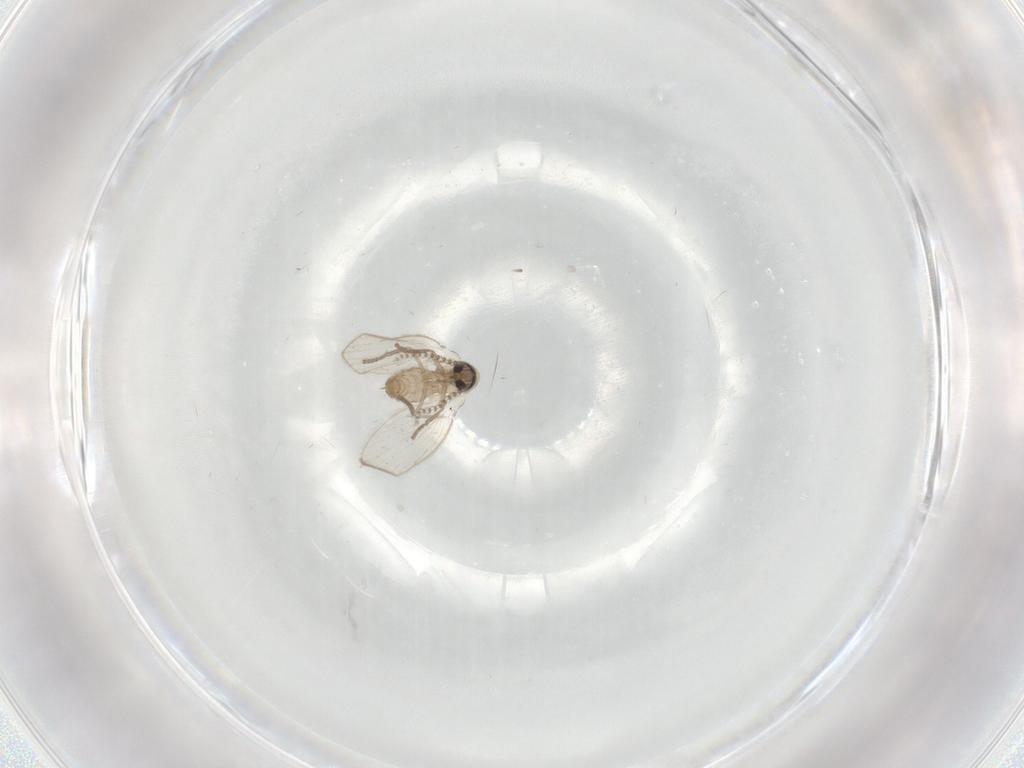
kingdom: Animalia
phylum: Arthropoda
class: Insecta
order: Diptera
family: Psychodidae
